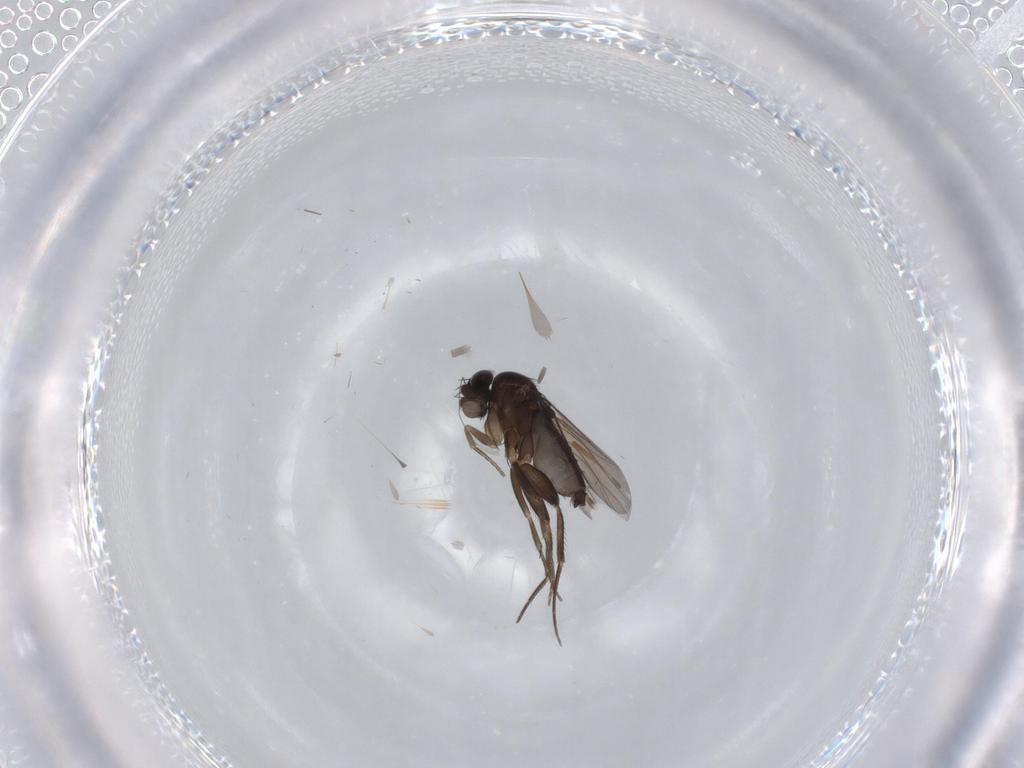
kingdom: Animalia
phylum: Arthropoda
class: Insecta
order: Diptera
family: Phoridae
